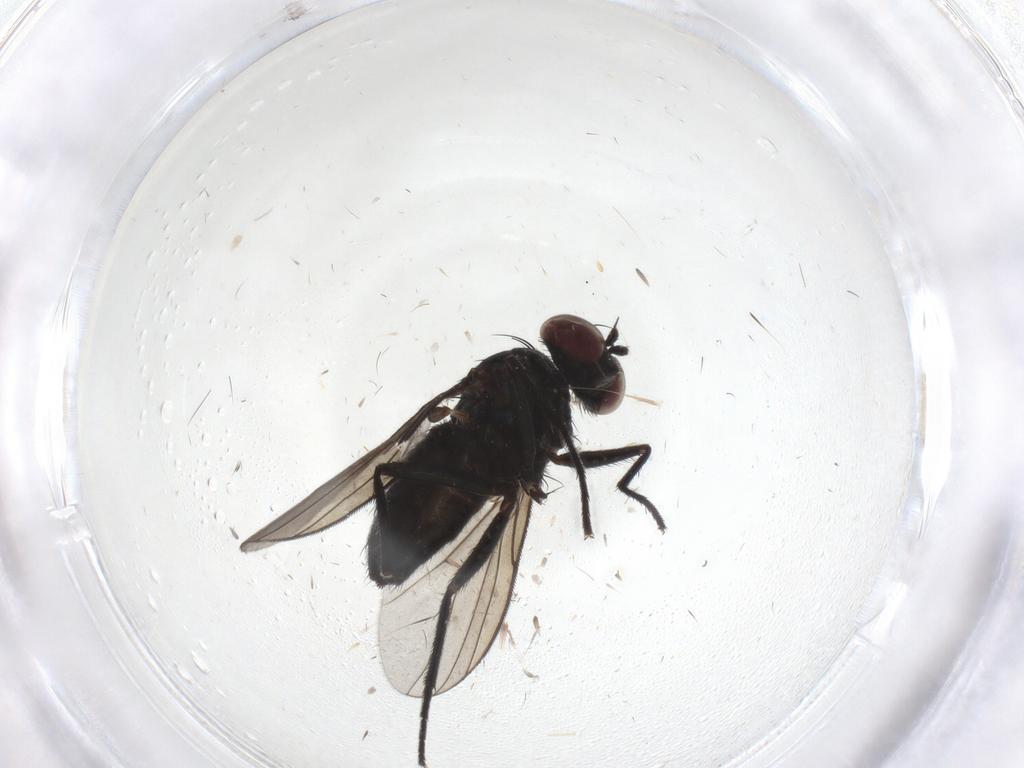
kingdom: Animalia
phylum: Arthropoda
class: Insecta
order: Diptera
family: Dolichopodidae
